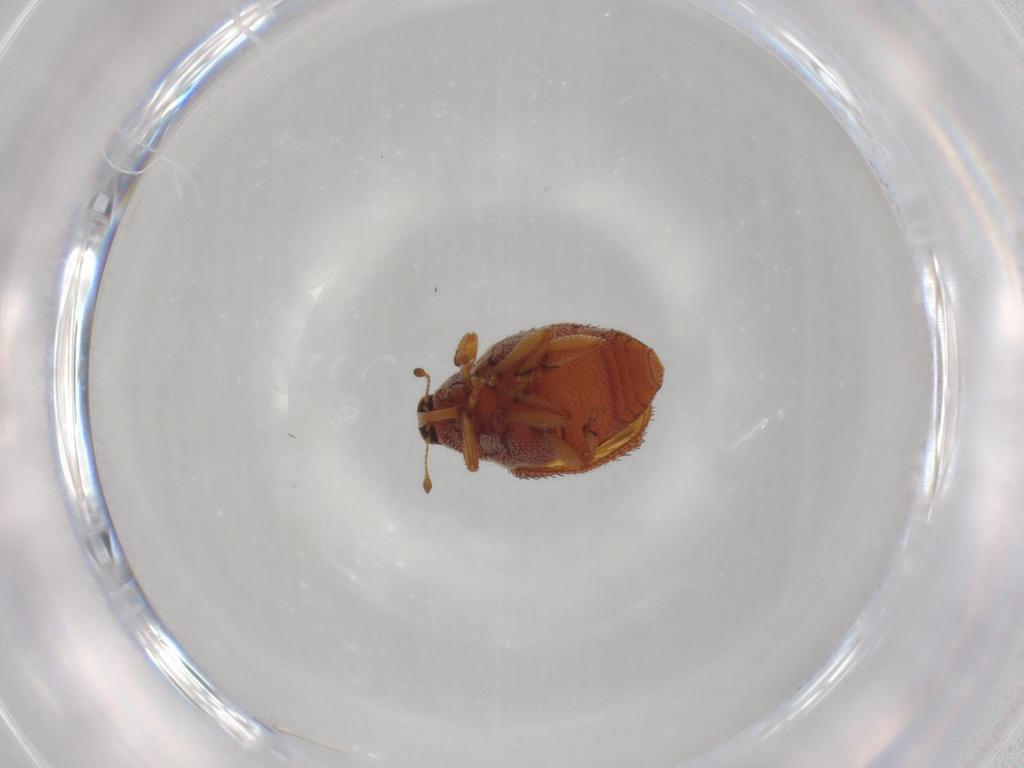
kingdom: Animalia
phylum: Arthropoda
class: Insecta
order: Coleoptera
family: Curculionidae
